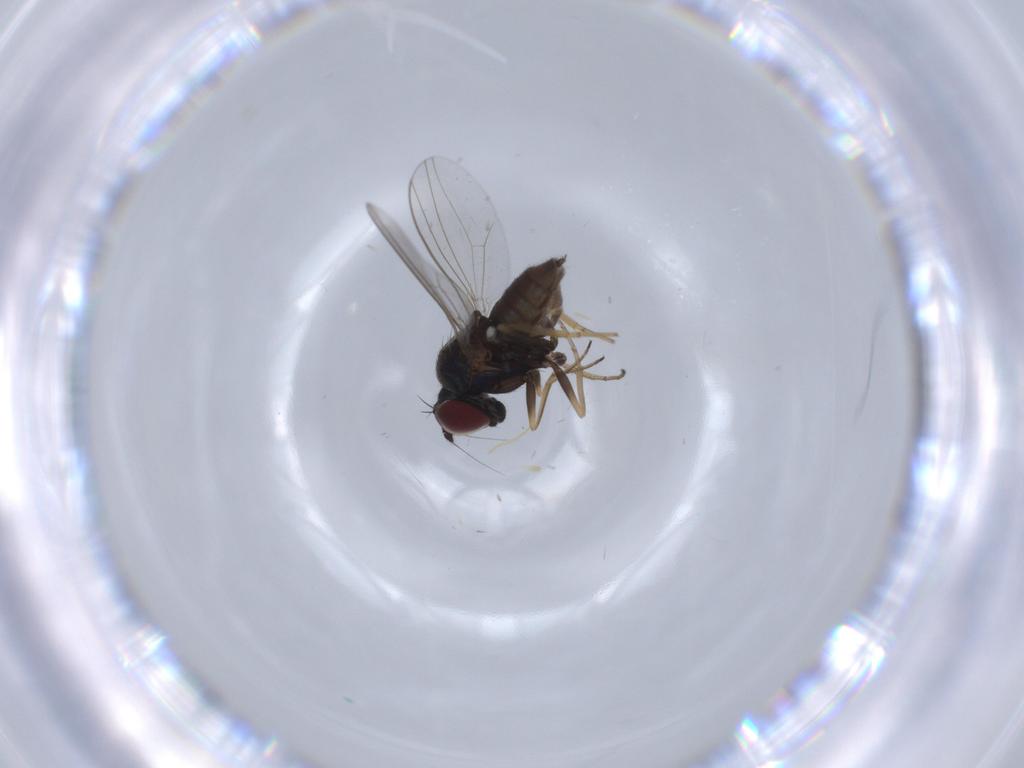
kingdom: Animalia
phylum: Arthropoda
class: Insecta
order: Diptera
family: Dolichopodidae
